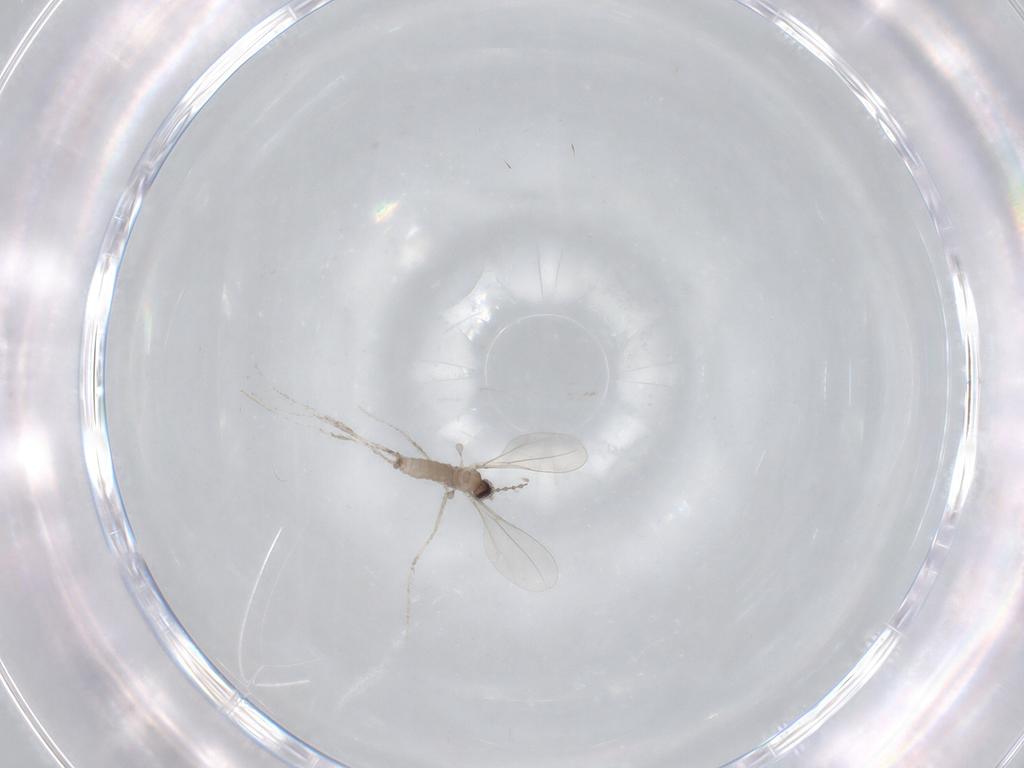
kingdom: Animalia
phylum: Arthropoda
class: Insecta
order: Diptera
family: Cecidomyiidae
